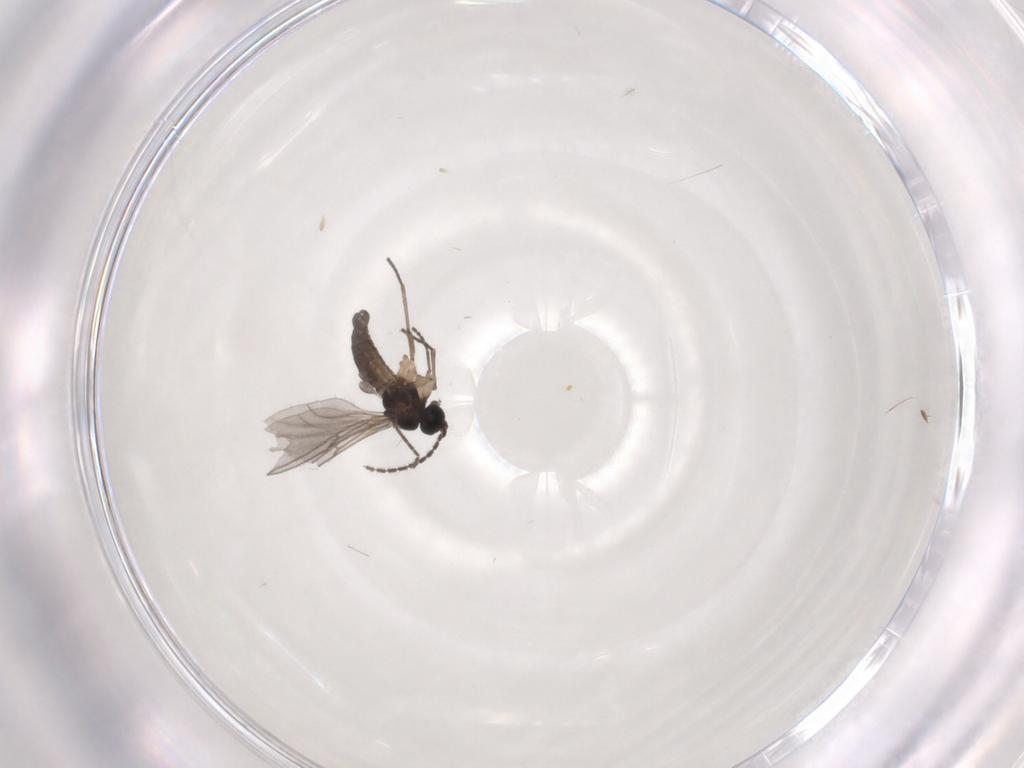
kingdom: Animalia
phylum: Arthropoda
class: Insecta
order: Diptera
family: Sciaridae
